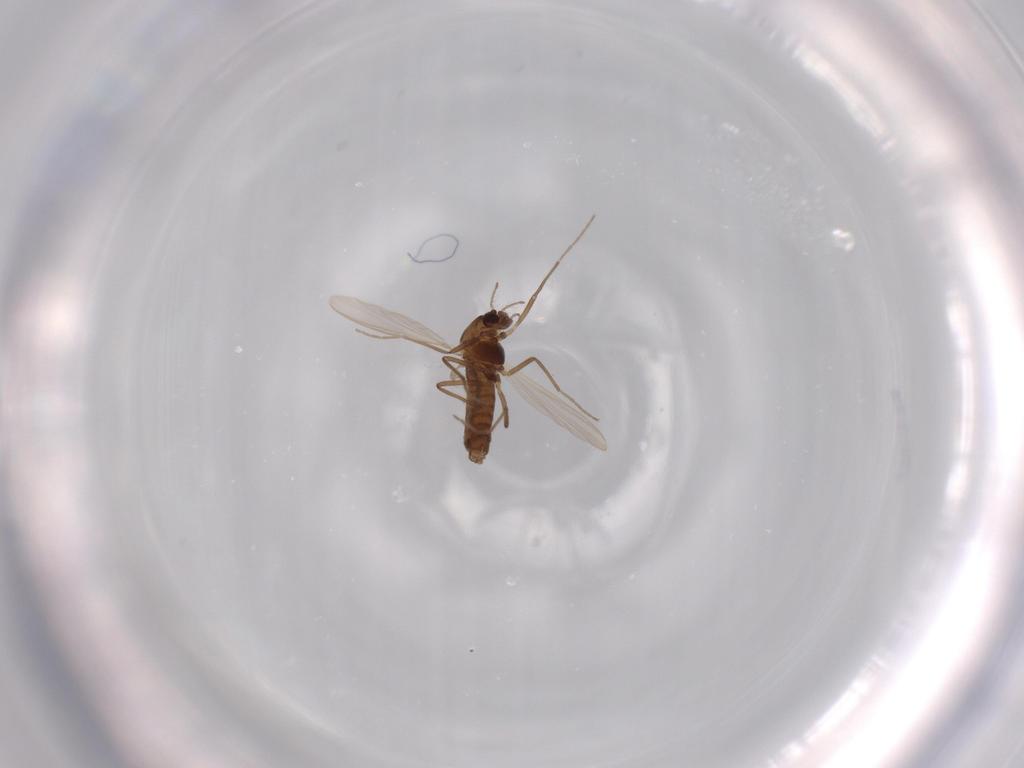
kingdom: Animalia
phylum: Arthropoda
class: Insecta
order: Diptera
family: Chironomidae
